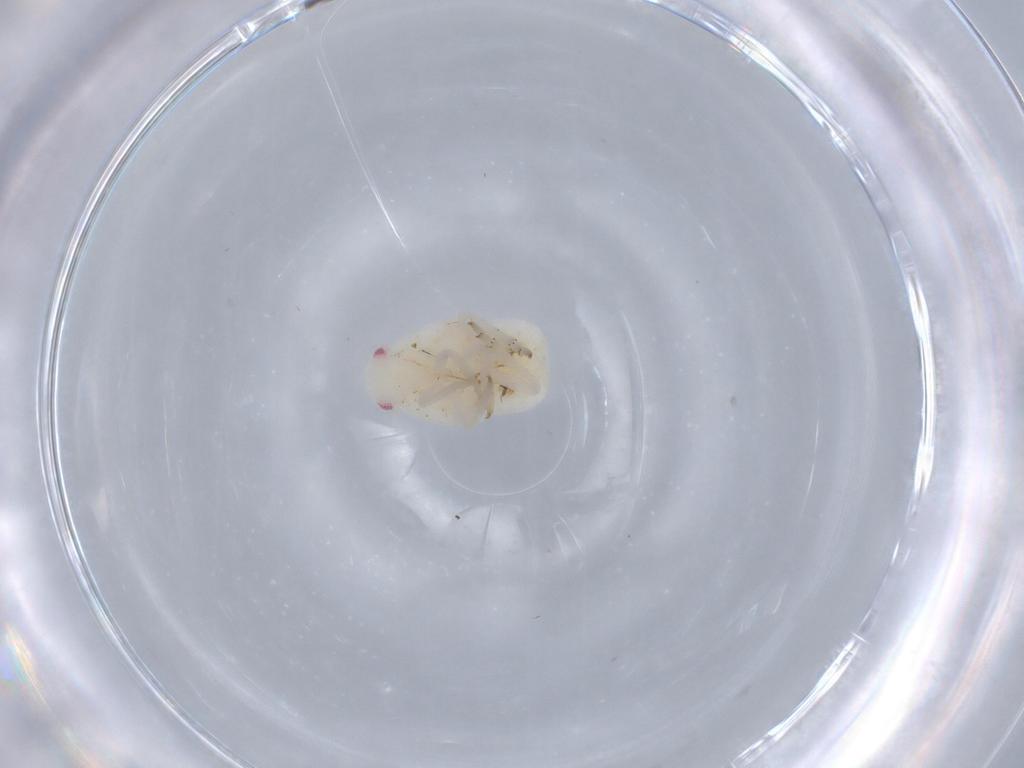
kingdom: Animalia
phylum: Arthropoda
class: Insecta
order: Hemiptera
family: Flatidae
